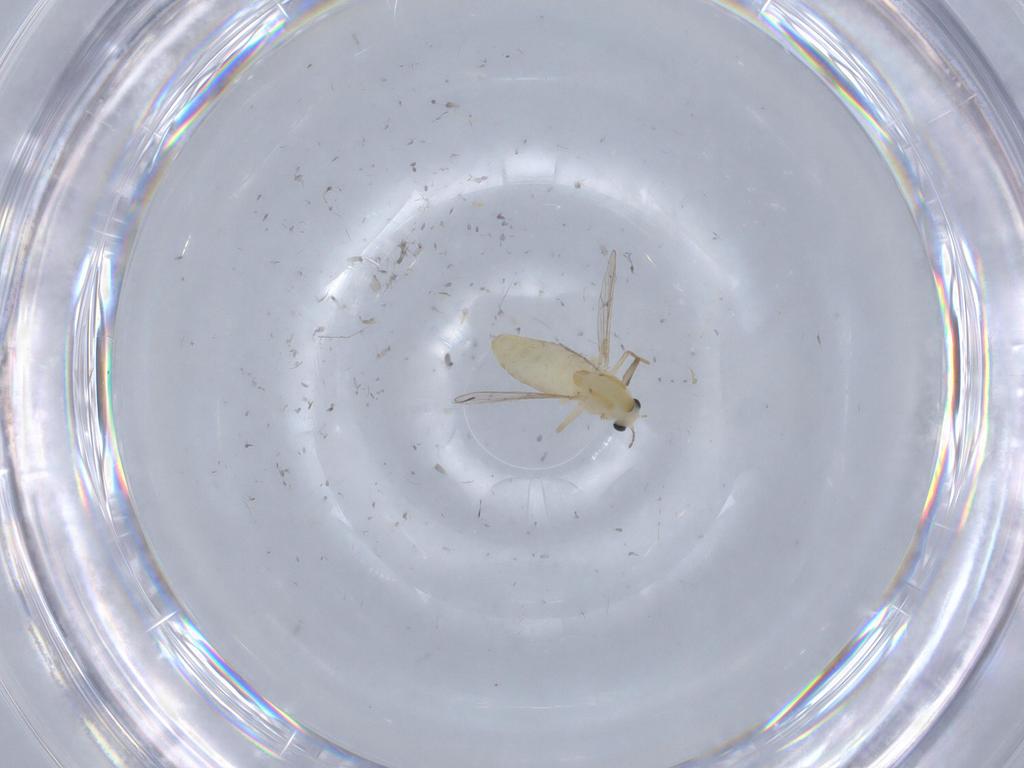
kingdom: Animalia
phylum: Arthropoda
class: Insecta
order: Diptera
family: Chironomidae
